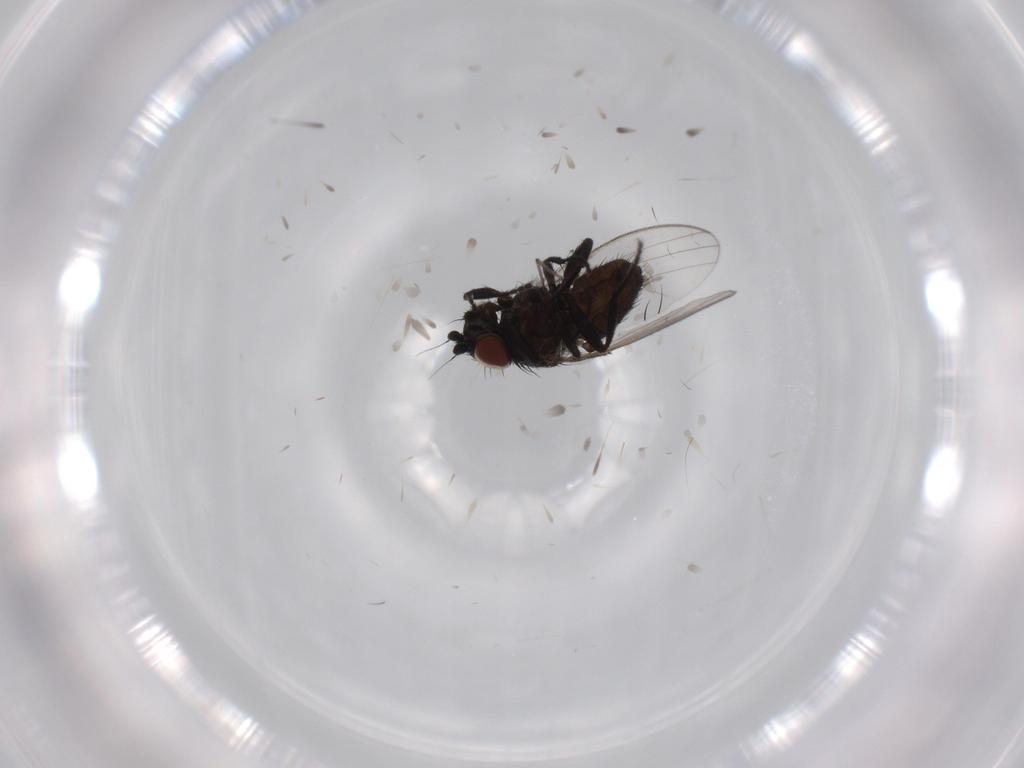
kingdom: Animalia
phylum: Arthropoda
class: Insecta
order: Diptera
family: Milichiidae
